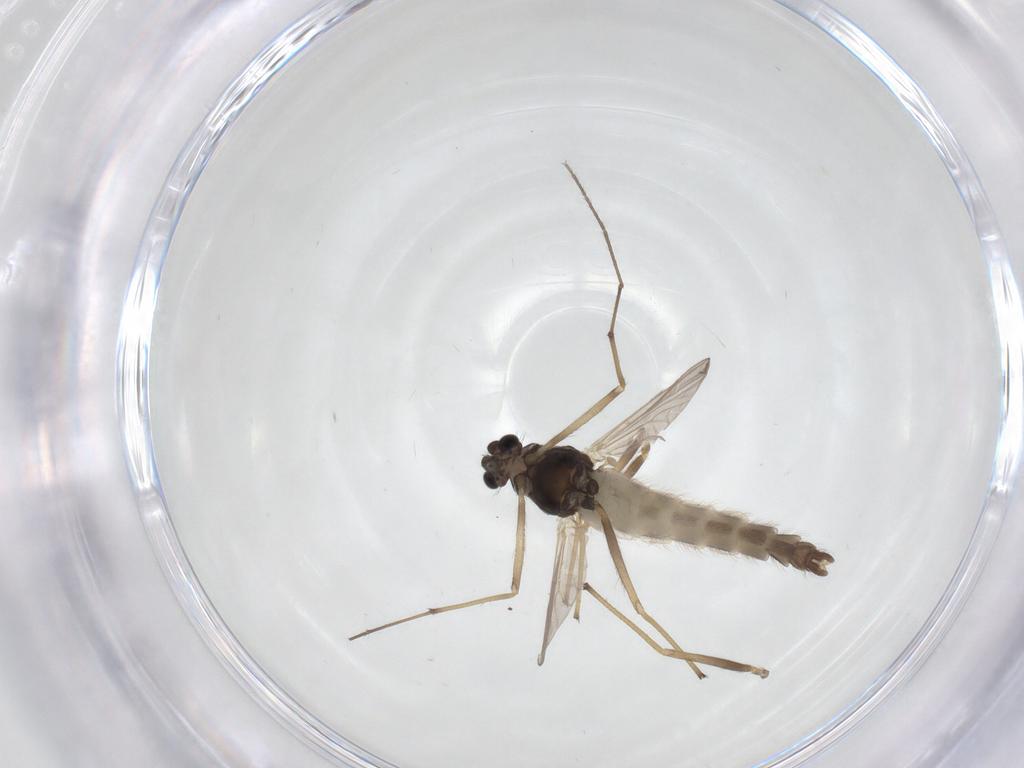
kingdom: Animalia
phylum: Arthropoda
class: Insecta
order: Diptera
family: Chironomidae
